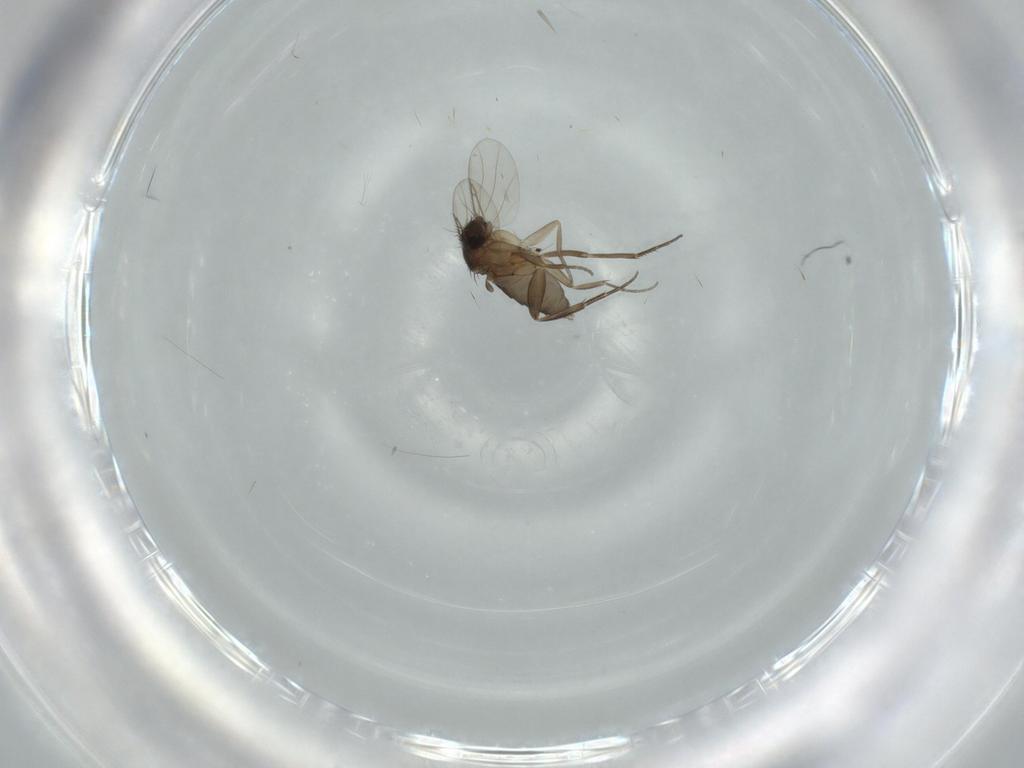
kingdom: Animalia
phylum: Arthropoda
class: Insecta
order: Diptera
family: Phoridae
